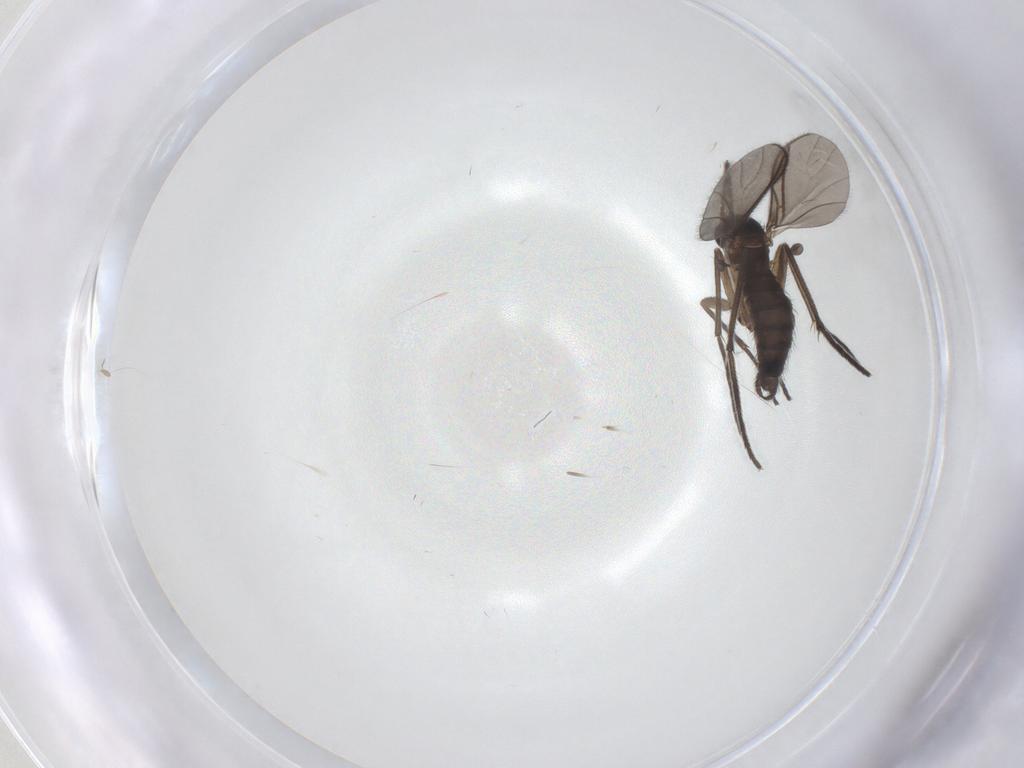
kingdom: Animalia
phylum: Arthropoda
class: Insecta
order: Diptera
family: Sciaridae
